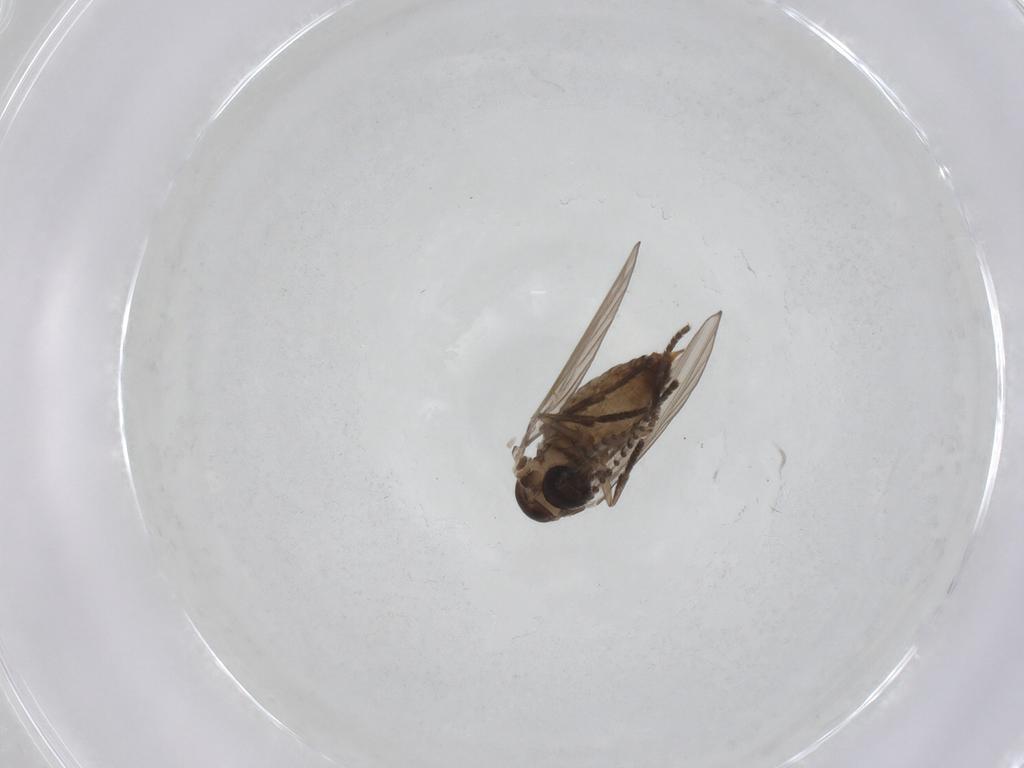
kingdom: Animalia
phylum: Arthropoda
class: Insecta
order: Diptera
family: Psychodidae
